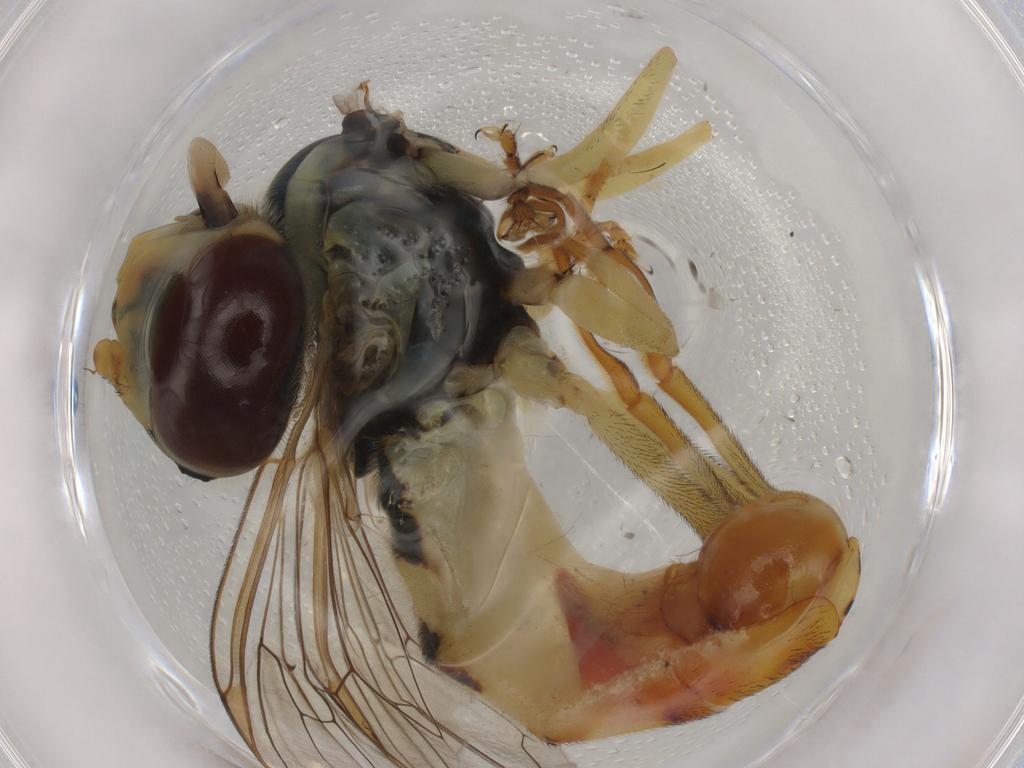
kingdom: Animalia
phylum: Arthropoda
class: Insecta
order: Diptera
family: Syrphidae
